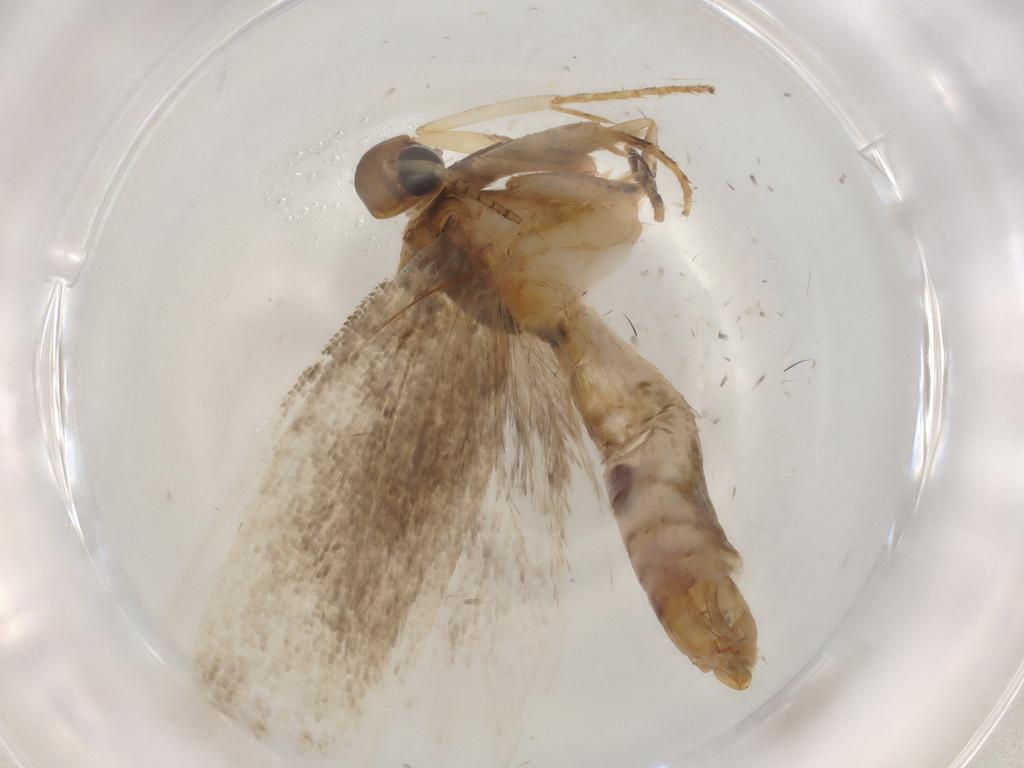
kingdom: Animalia
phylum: Arthropoda
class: Insecta
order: Lepidoptera
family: Gelechiidae
